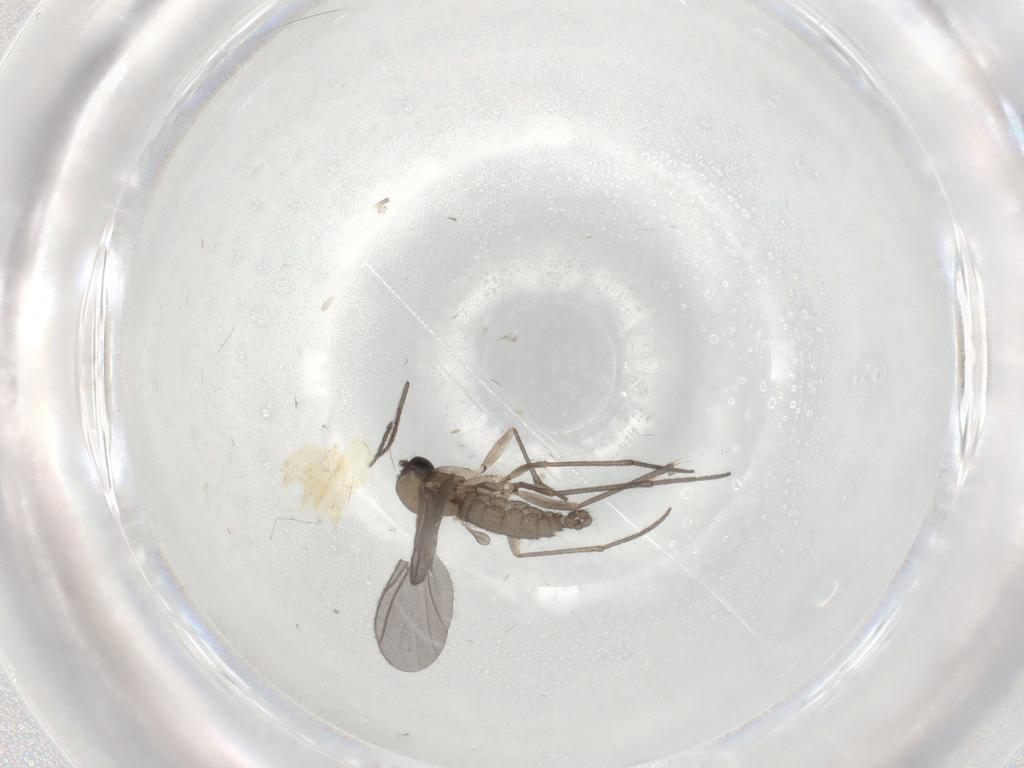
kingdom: Animalia
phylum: Arthropoda
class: Insecta
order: Diptera
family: Sciaridae
